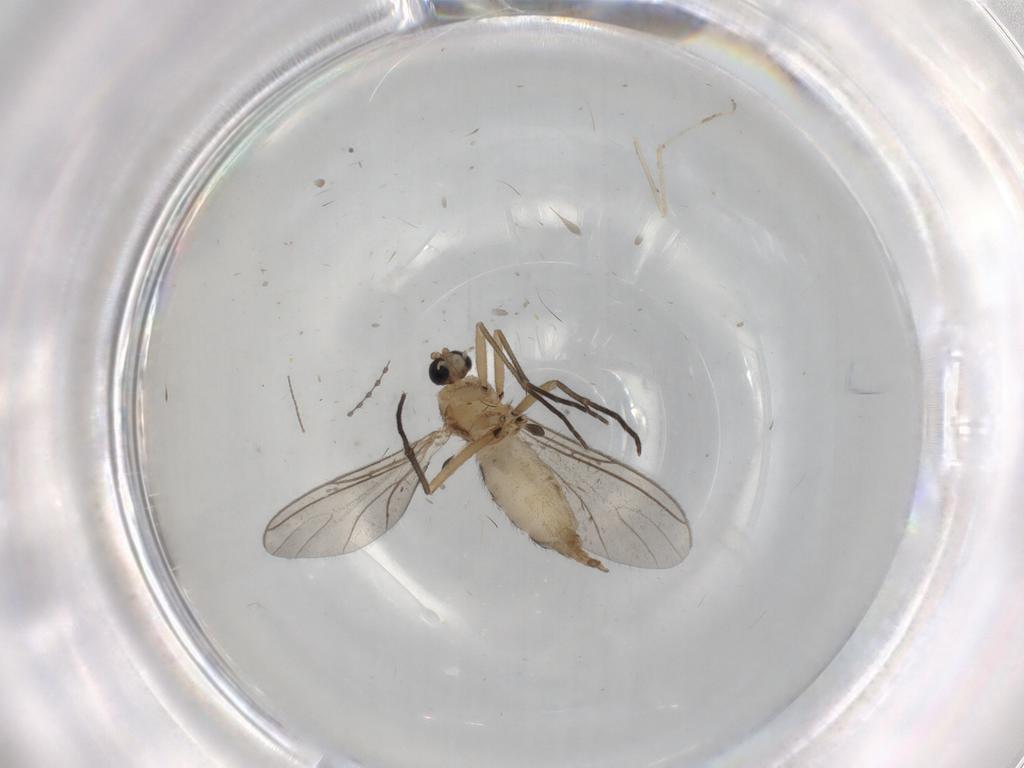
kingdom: Animalia
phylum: Arthropoda
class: Insecta
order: Diptera
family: Sciaridae
